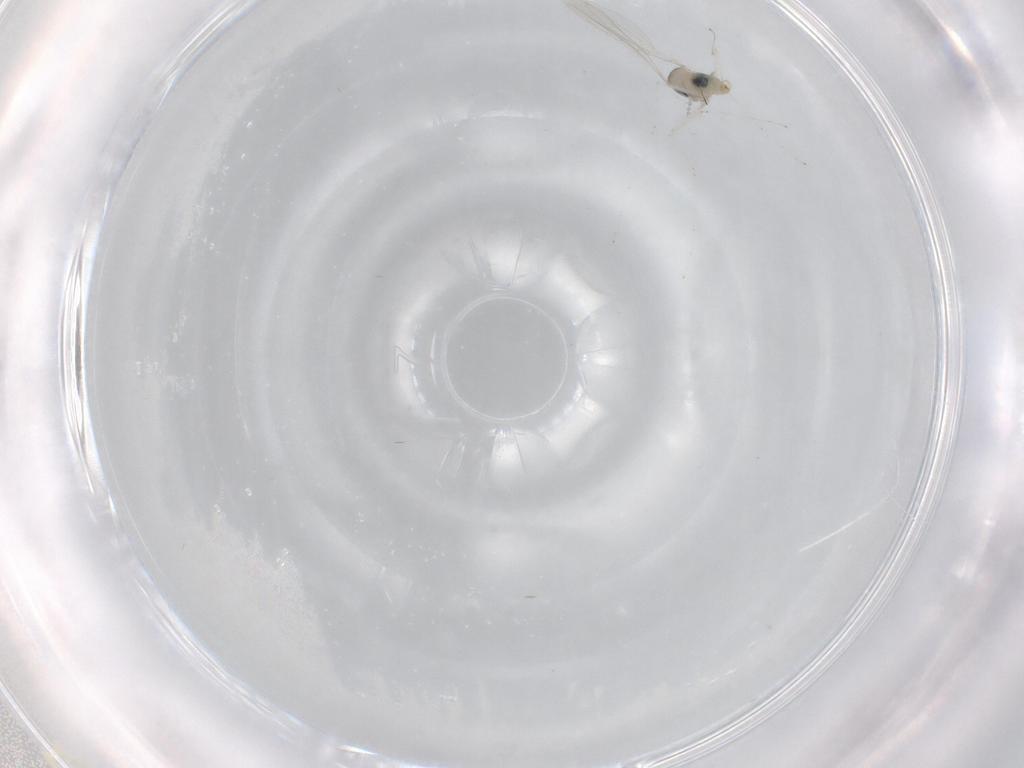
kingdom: Animalia
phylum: Arthropoda
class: Insecta
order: Diptera
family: Cecidomyiidae
